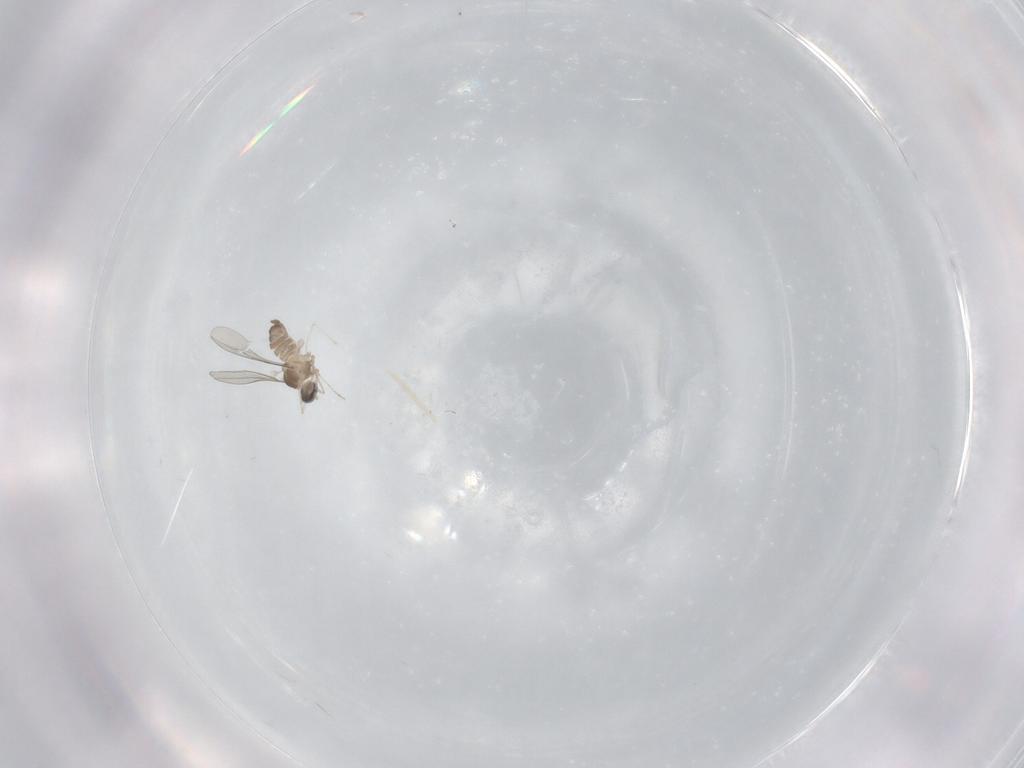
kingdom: Animalia
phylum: Arthropoda
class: Insecta
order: Diptera
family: Cecidomyiidae
